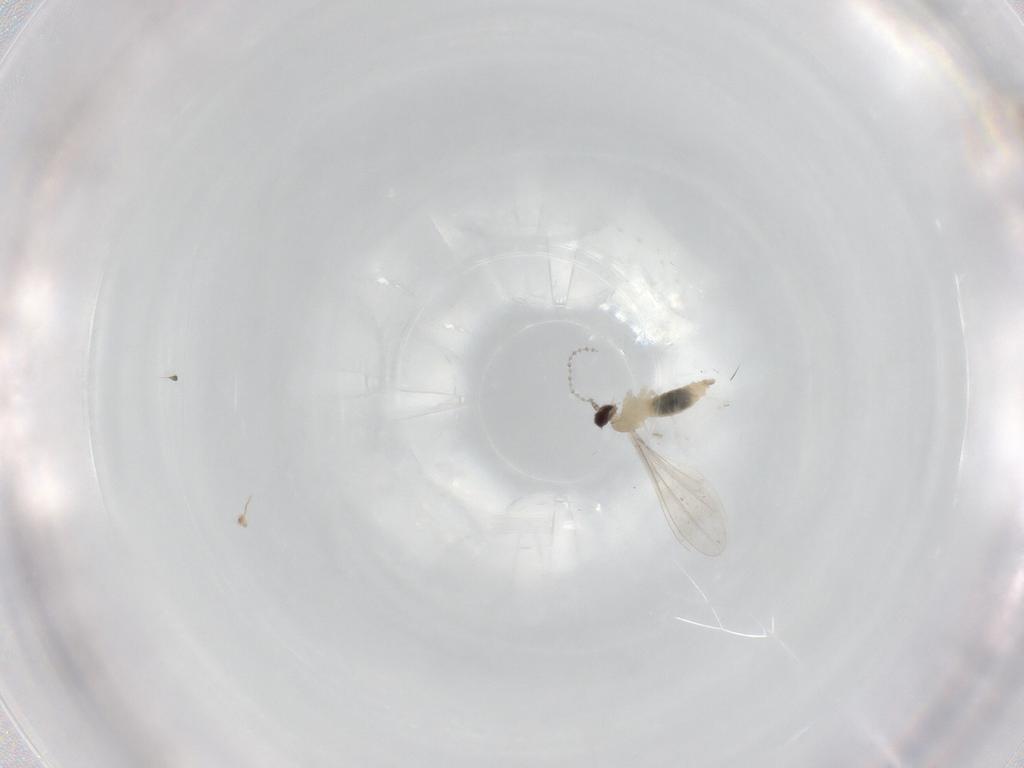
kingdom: Animalia
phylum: Arthropoda
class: Insecta
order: Diptera
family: Cecidomyiidae
